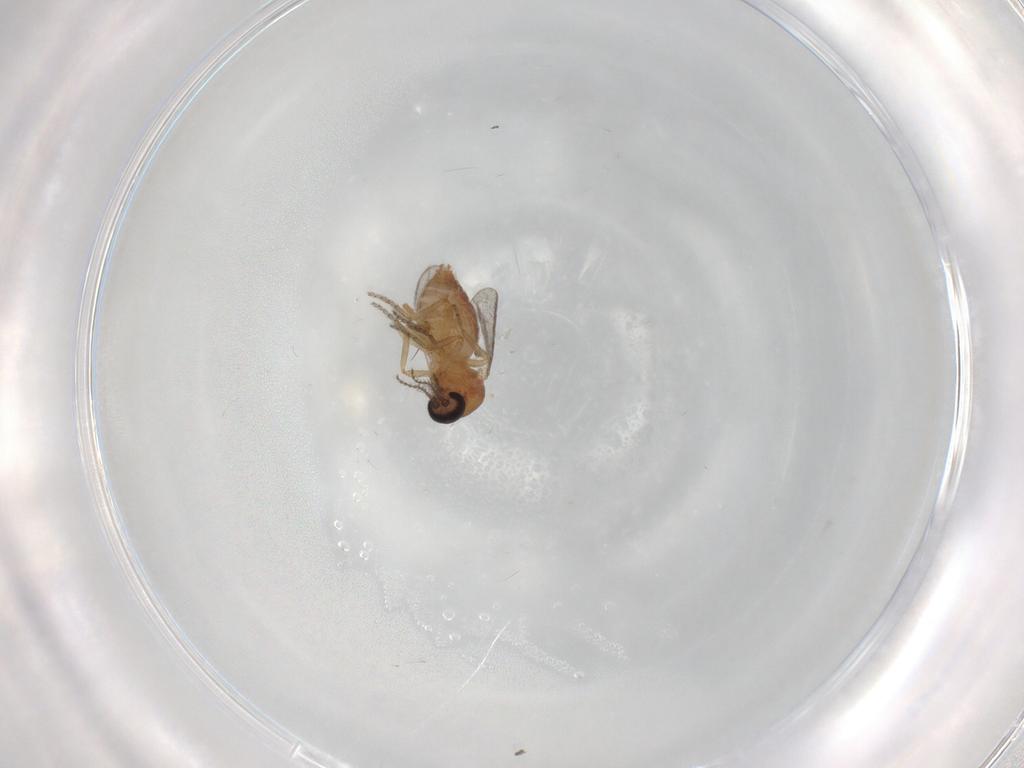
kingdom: Animalia
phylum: Arthropoda
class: Insecta
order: Diptera
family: Ceratopogonidae
